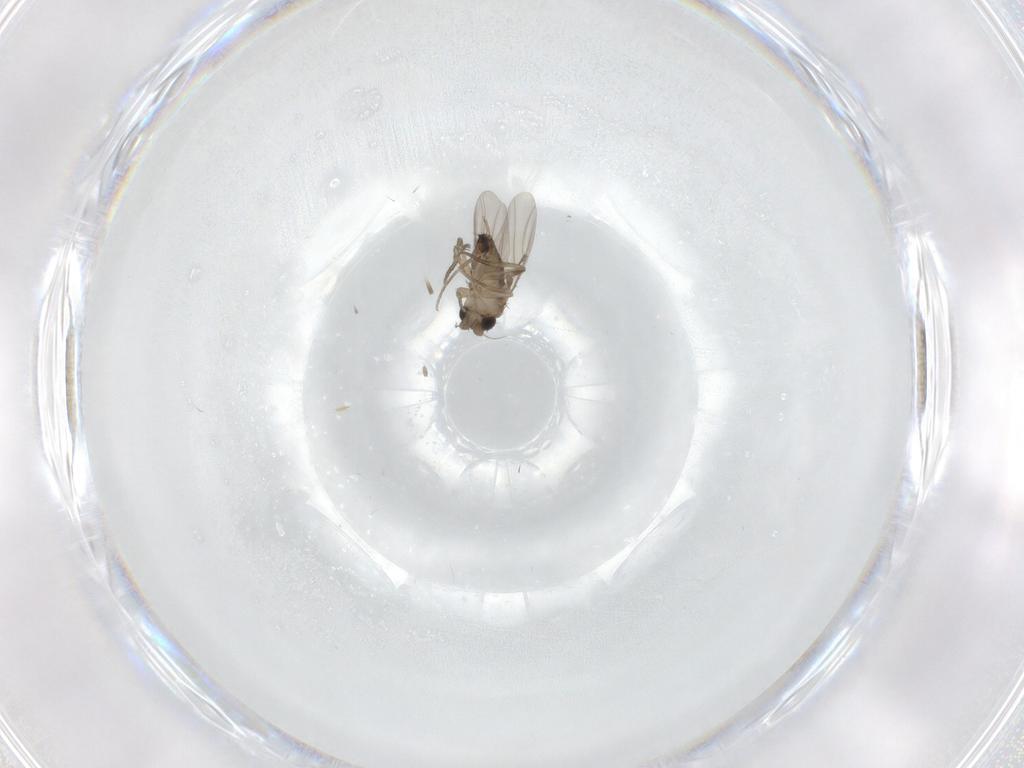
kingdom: Animalia
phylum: Arthropoda
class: Insecta
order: Diptera
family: Phoridae
